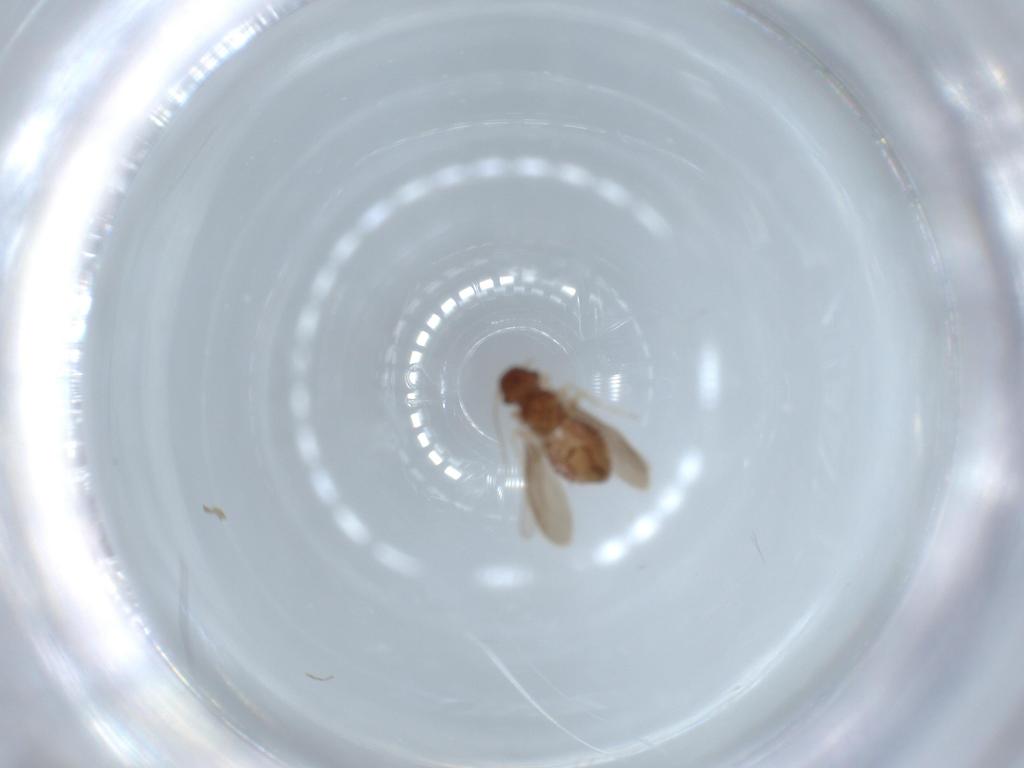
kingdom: Animalia
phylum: Arthropoda
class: Insecta
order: Psocodea
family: Archipsocidae
